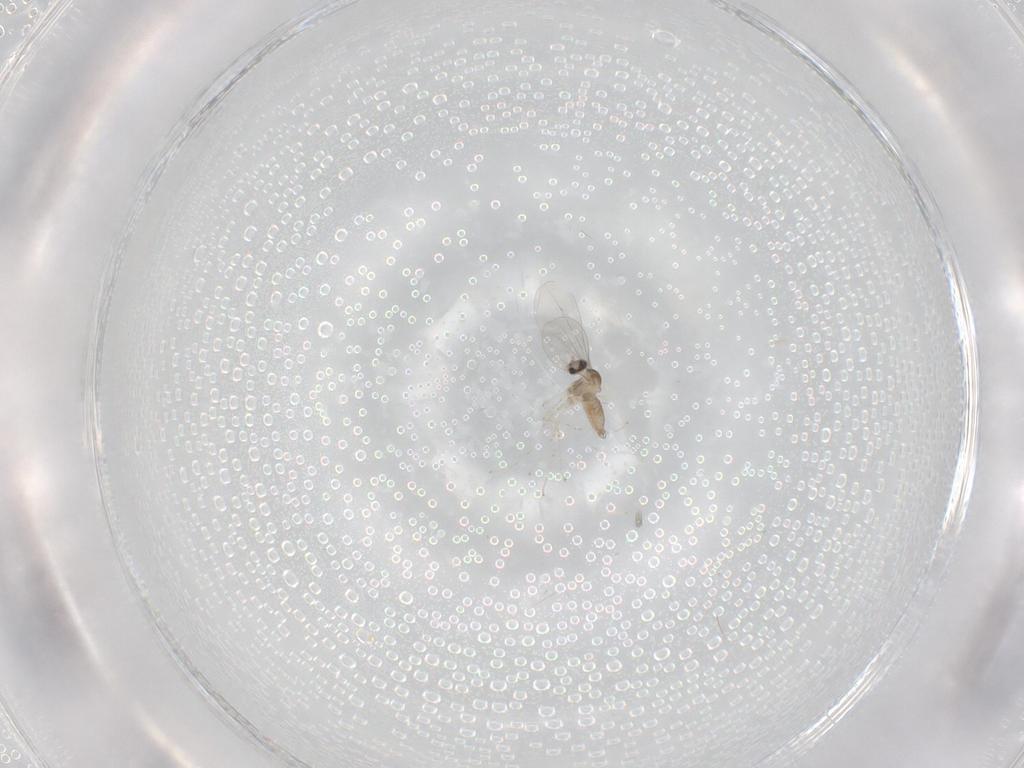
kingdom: Animalia
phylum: Arthropoda
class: Insecta
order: Diptera
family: Cecidomyiidae
